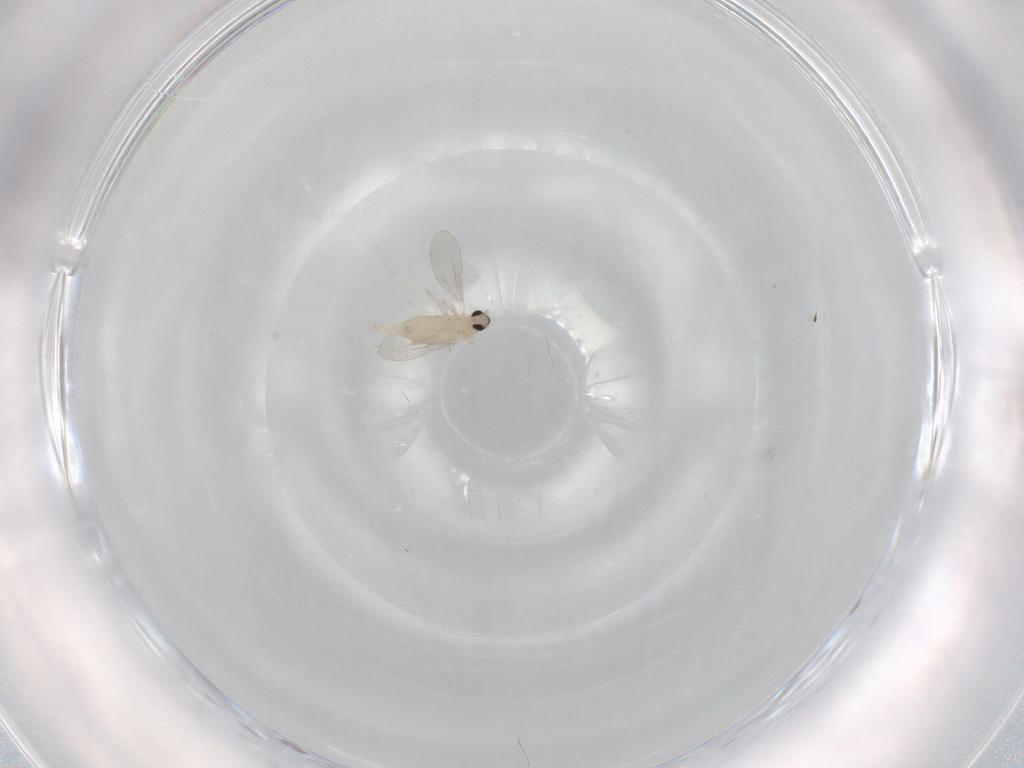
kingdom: Animalia
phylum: Arthropoda
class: Insecta
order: Diptera
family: Cecidomyiidae
